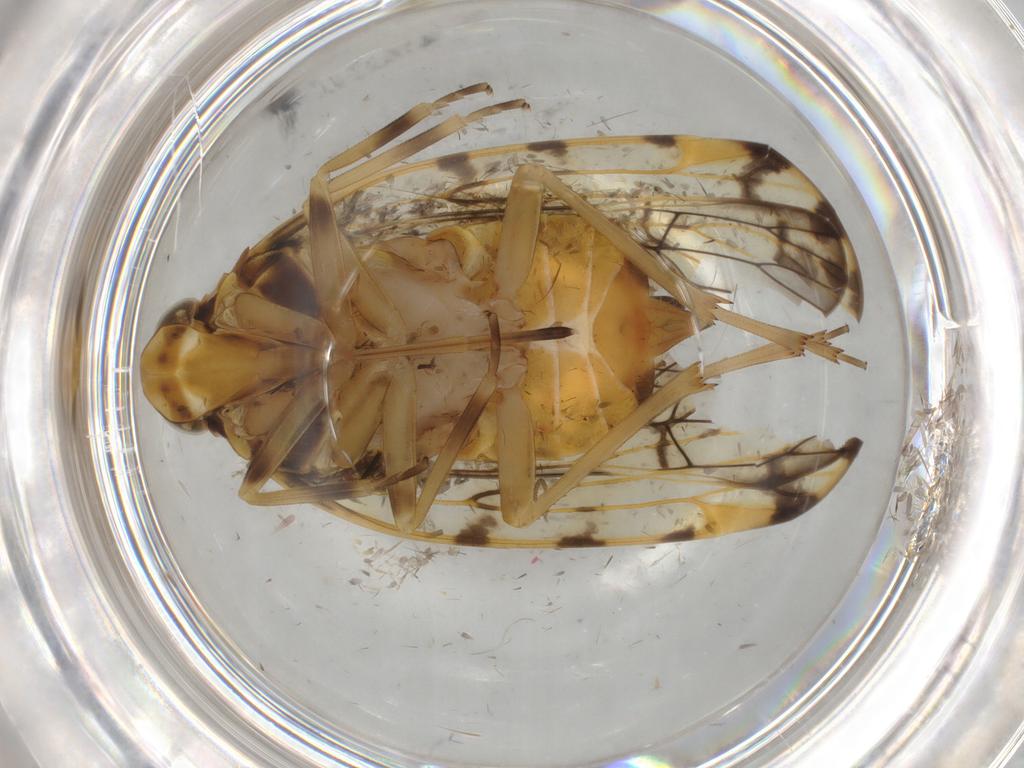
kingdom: Animalia
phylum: Arthropoda
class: Insecta
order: Hemiptera
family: Cixiidae
